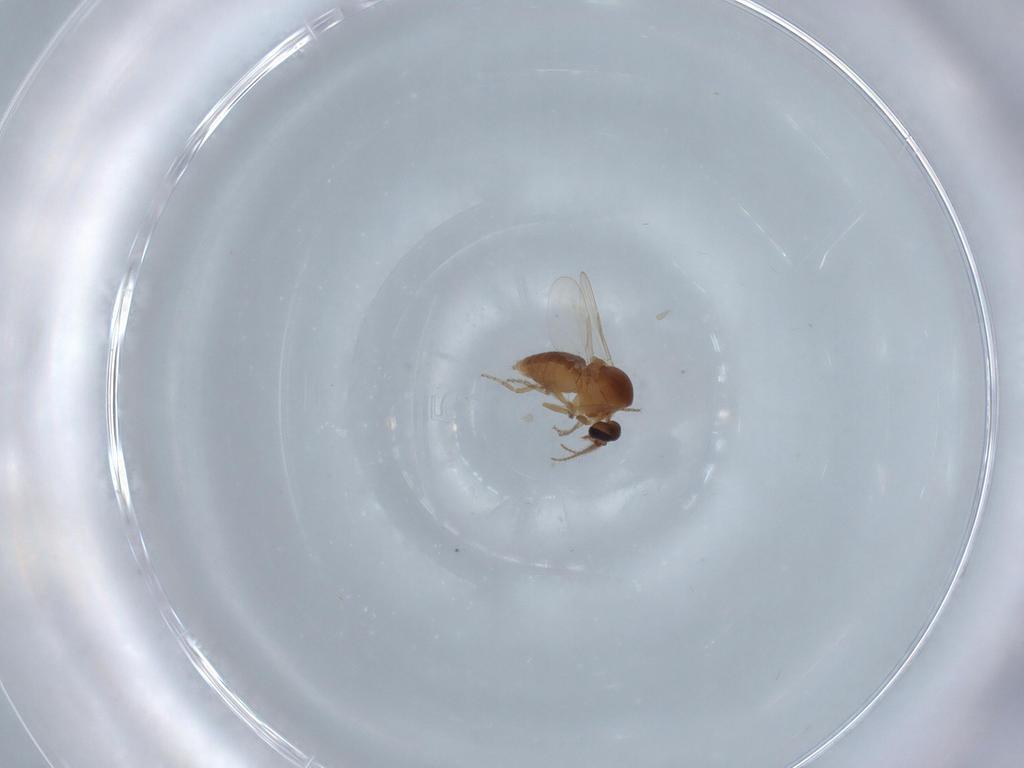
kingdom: Animalia
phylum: Arthropoda
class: Insecta
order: Diptera
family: Ceratopogonidae
